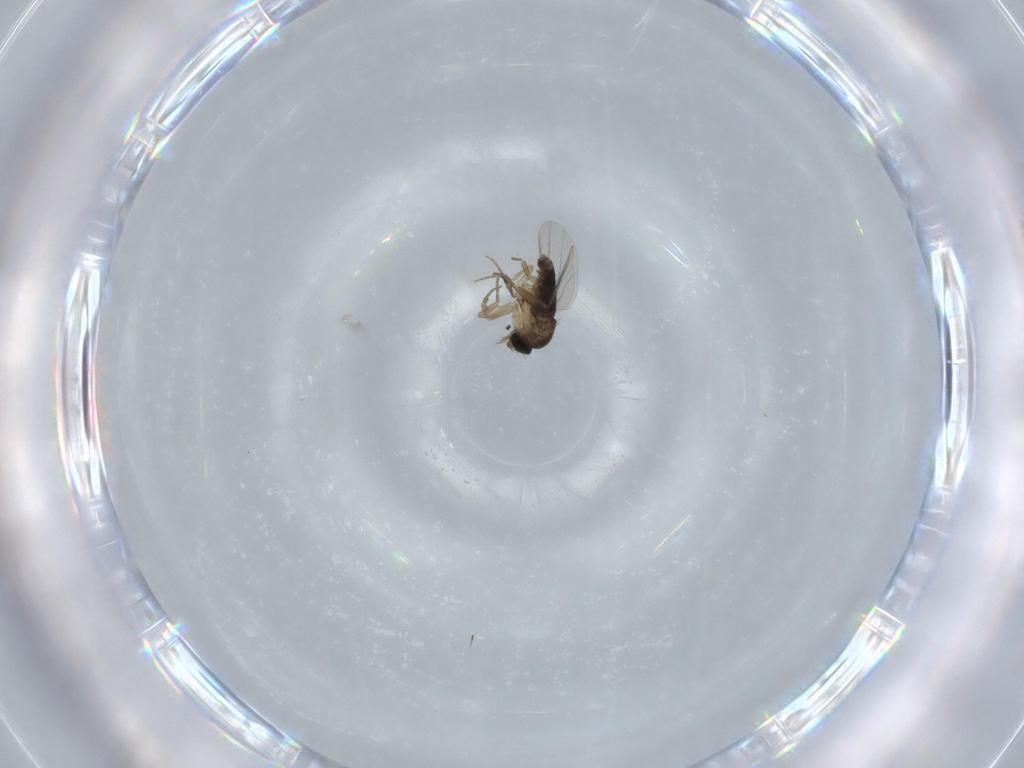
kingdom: Animalia
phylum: Arthropoda
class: Insecta
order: Diptera
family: Phoridae
